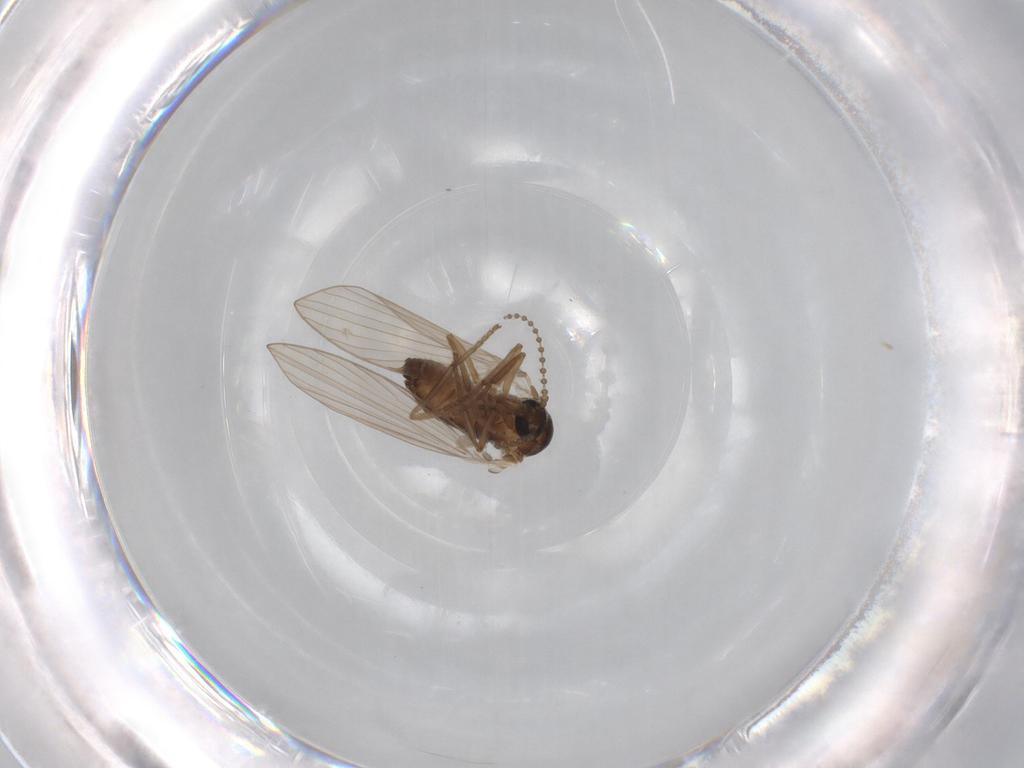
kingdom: Animalia
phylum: Arthropoda
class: Insecta
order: Diptera
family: Psychodidae
